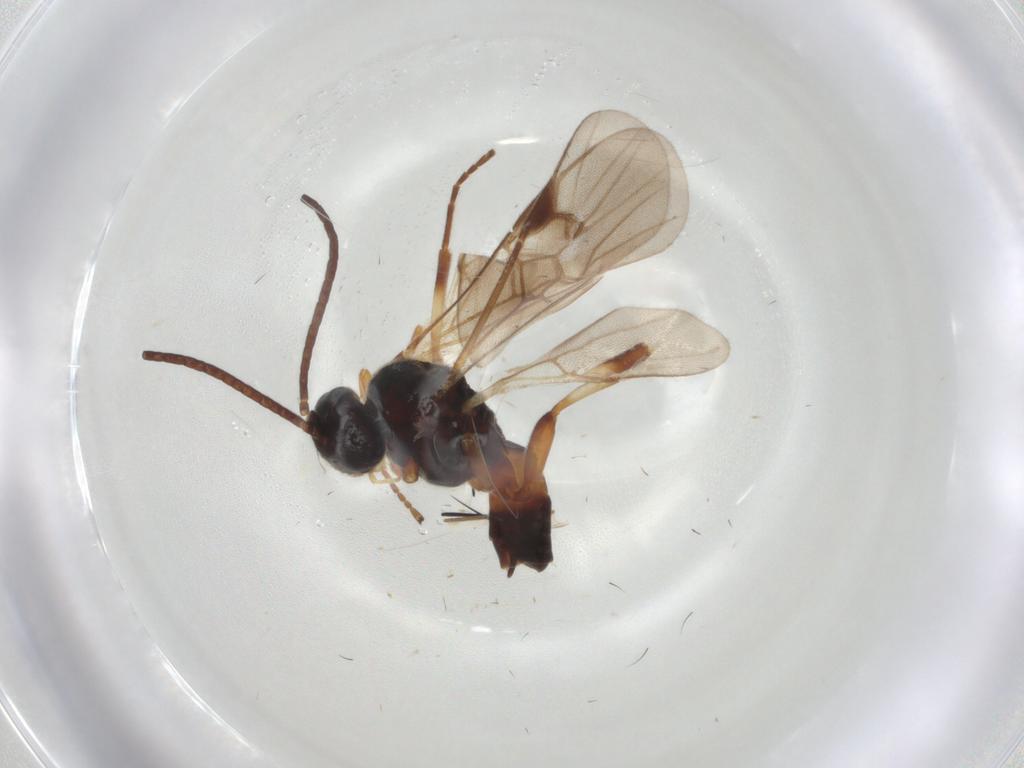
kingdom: Animalia
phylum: Arthropoda
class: Insecta
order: Hymenoptera
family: Braconidae
